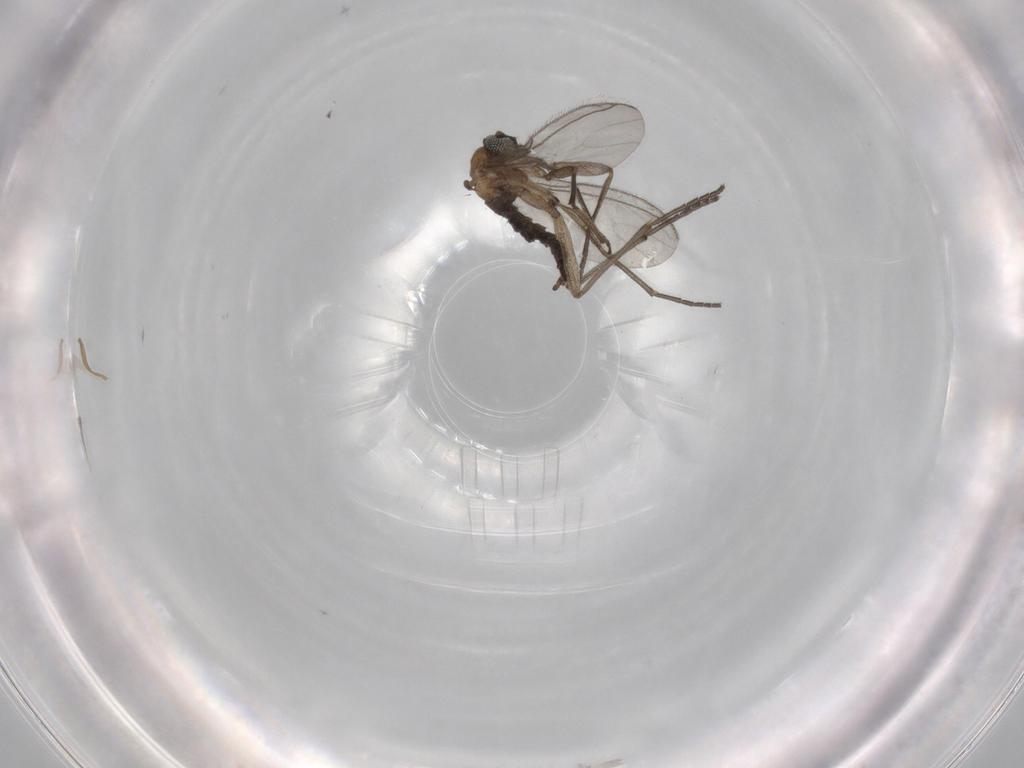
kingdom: Animalia
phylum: Arthropoda
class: Insecta
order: Diptera
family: Sciaridae
